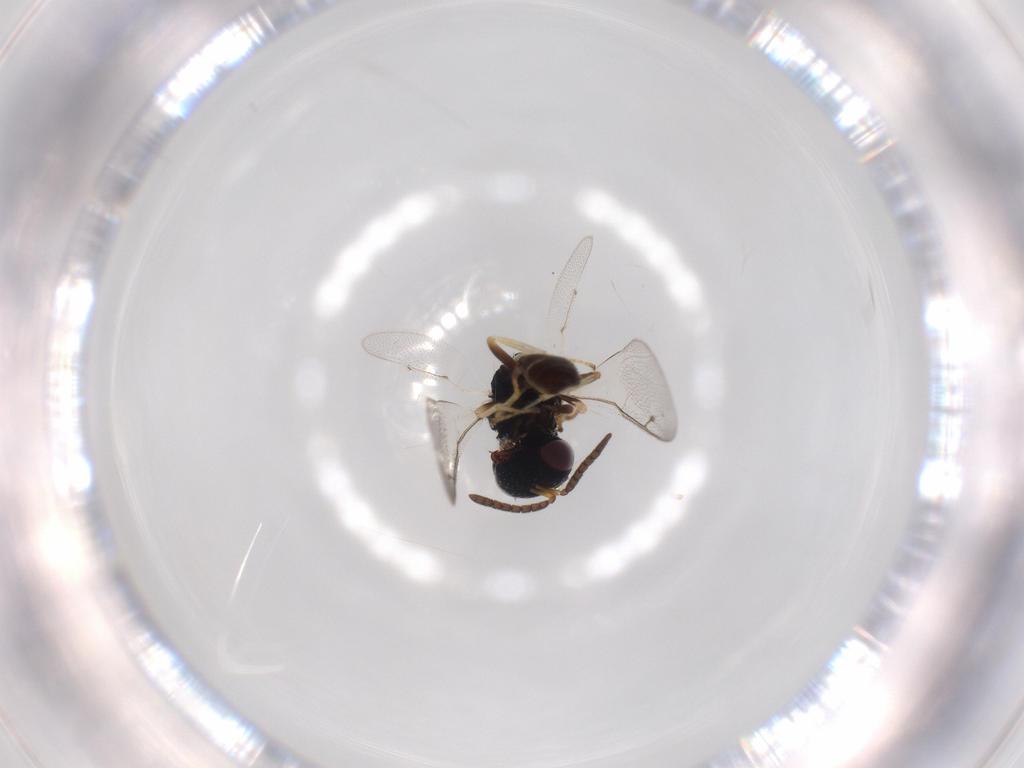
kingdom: Animalia
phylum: Arthropoda
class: Insecta
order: Hymenoptera
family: Pteromalidae
